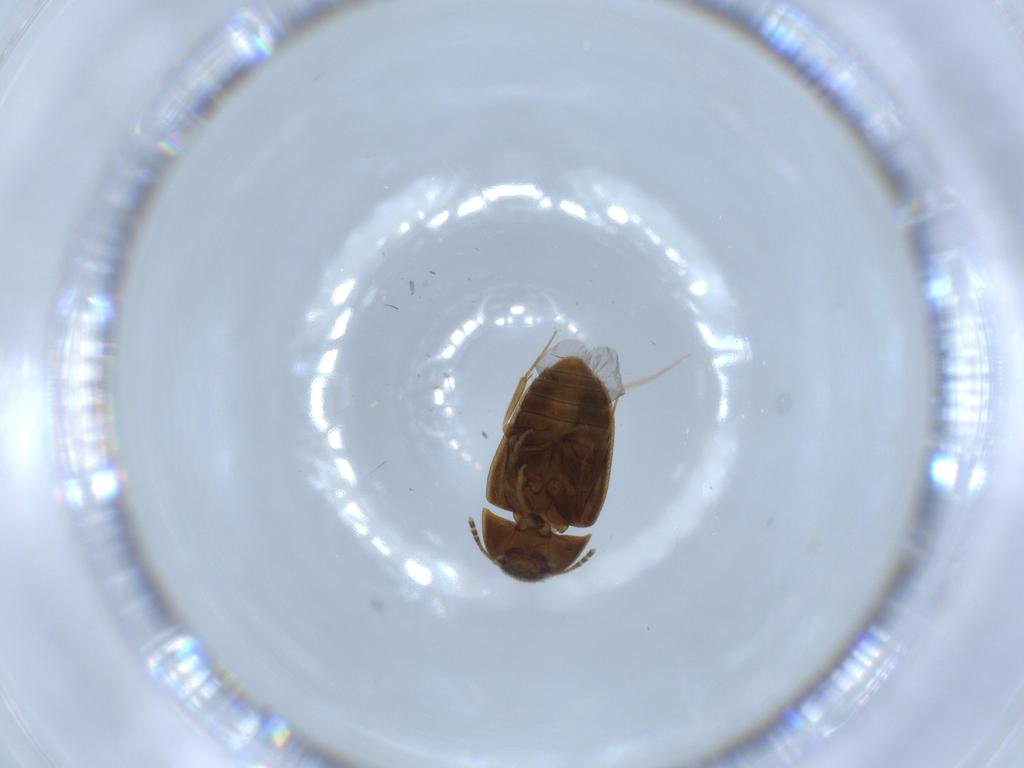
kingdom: Animalia
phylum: Arthropoda
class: Insecta
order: Coleoptera
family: Mycetophagidae
